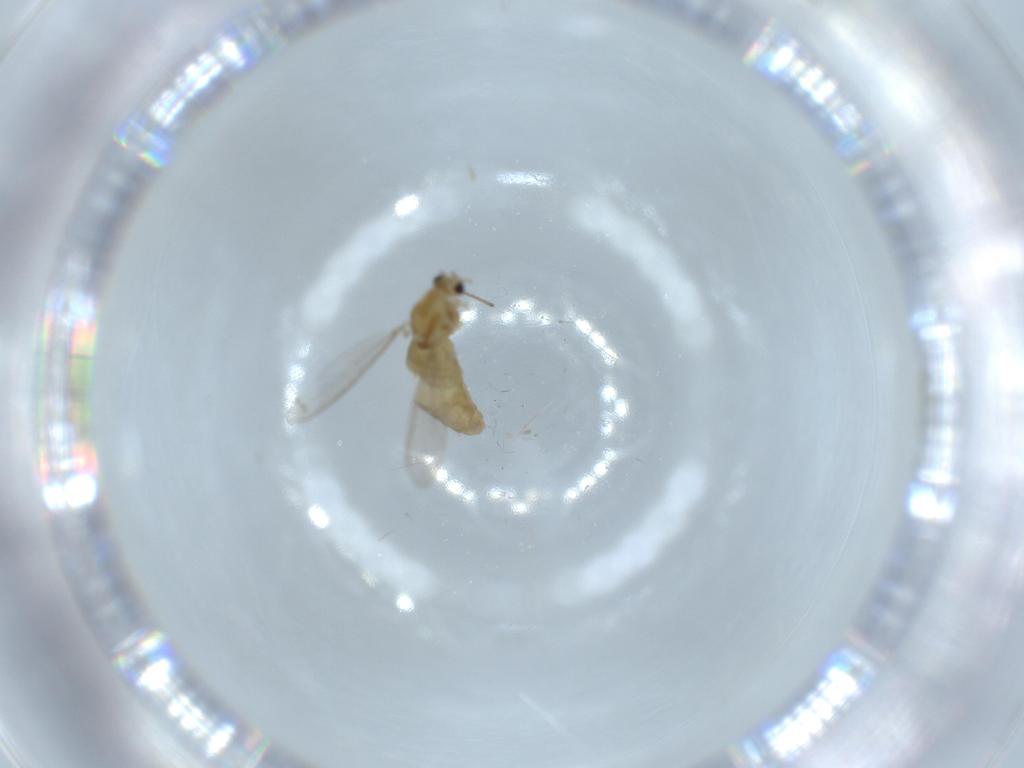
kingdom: Animalia
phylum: Arthropoda
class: Insecta
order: Diptera
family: Chironomidae
